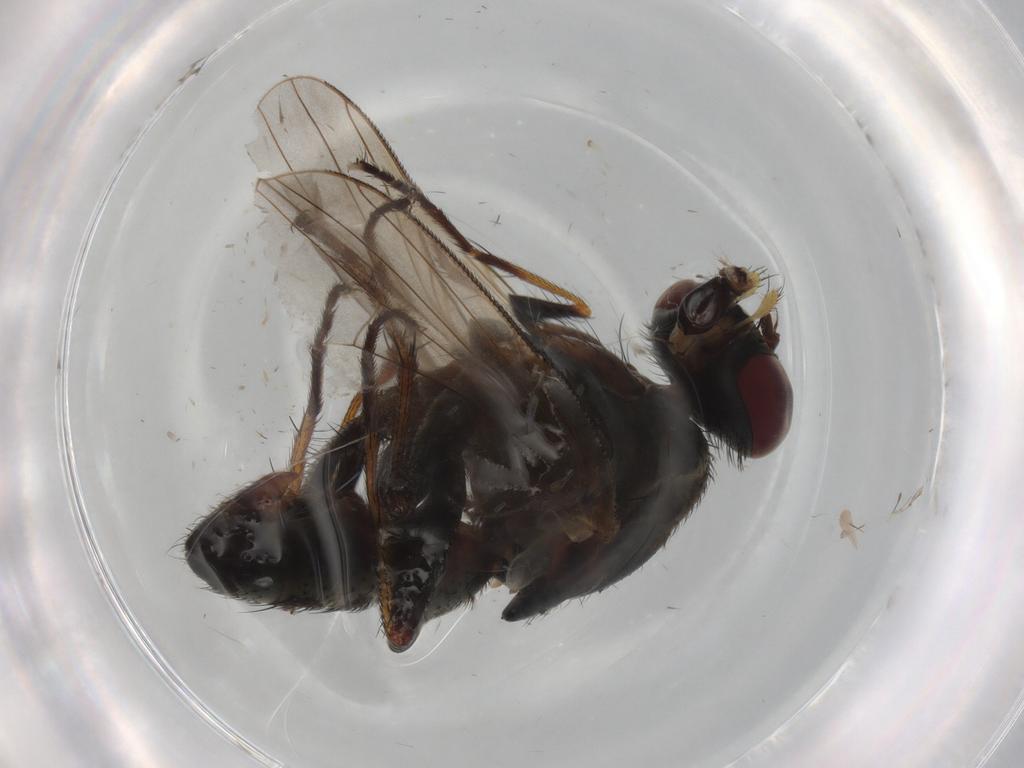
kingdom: Animalia
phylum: Arthropoda
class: Insecta
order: Diptera
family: Muscidae
